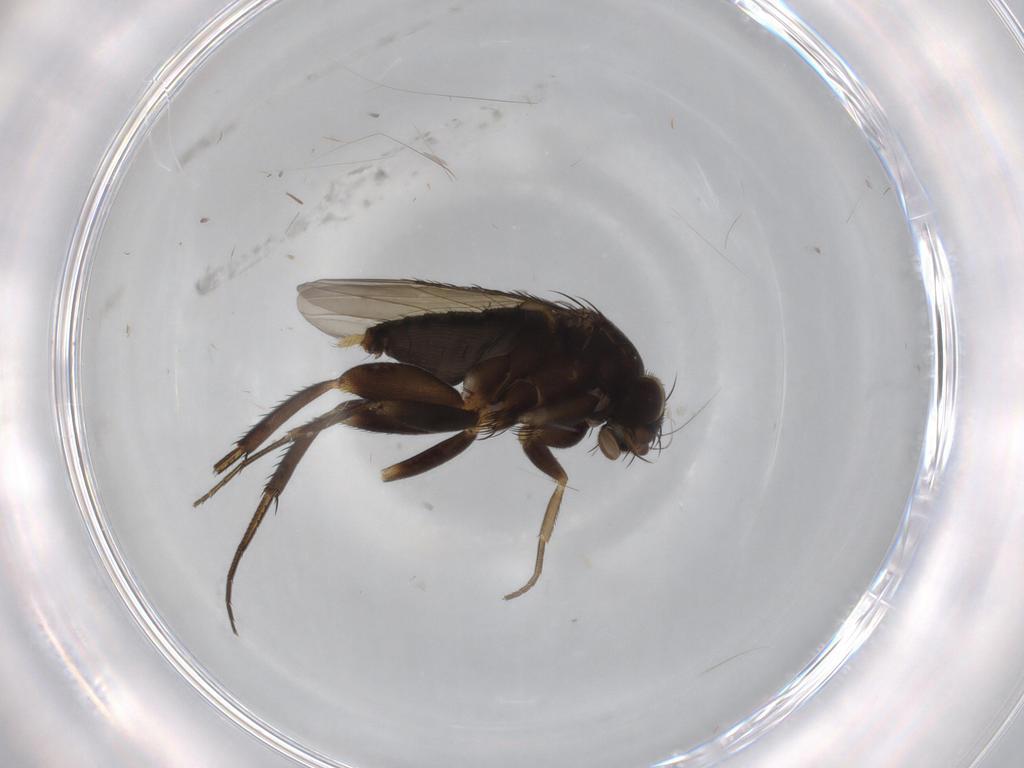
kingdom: Animalia
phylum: Arthropoda
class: Insecta
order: Diptera
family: Phoridae
